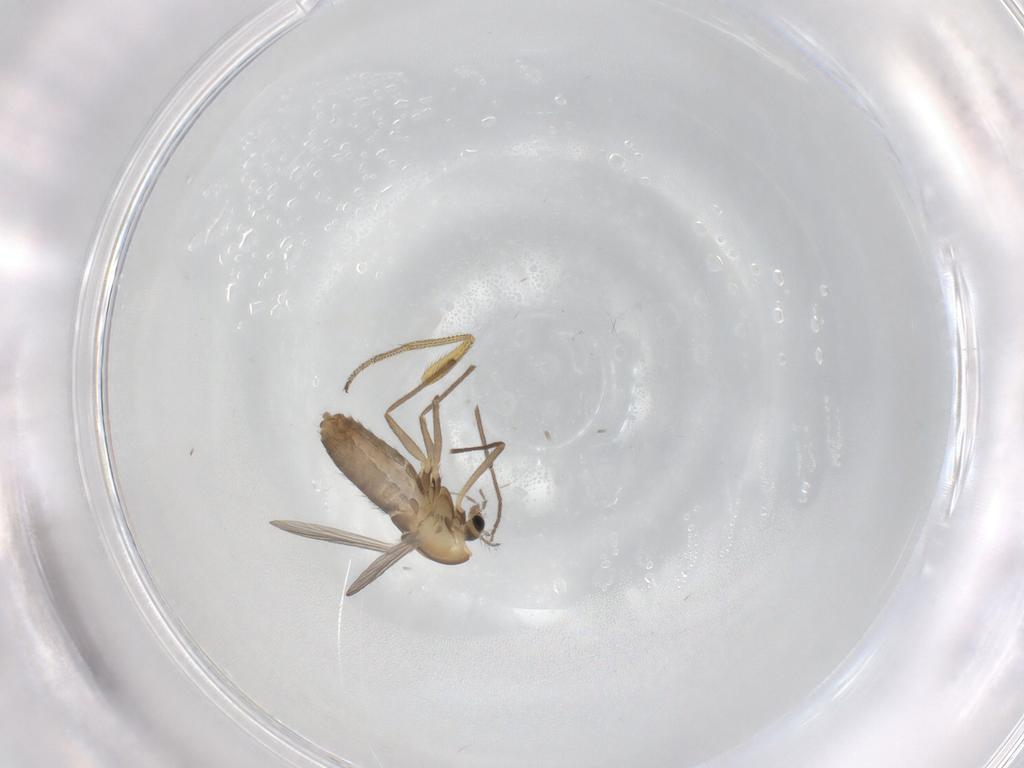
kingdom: Animalia
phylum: Arthropoda
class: Insecta
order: Diptera
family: Chironomidae
